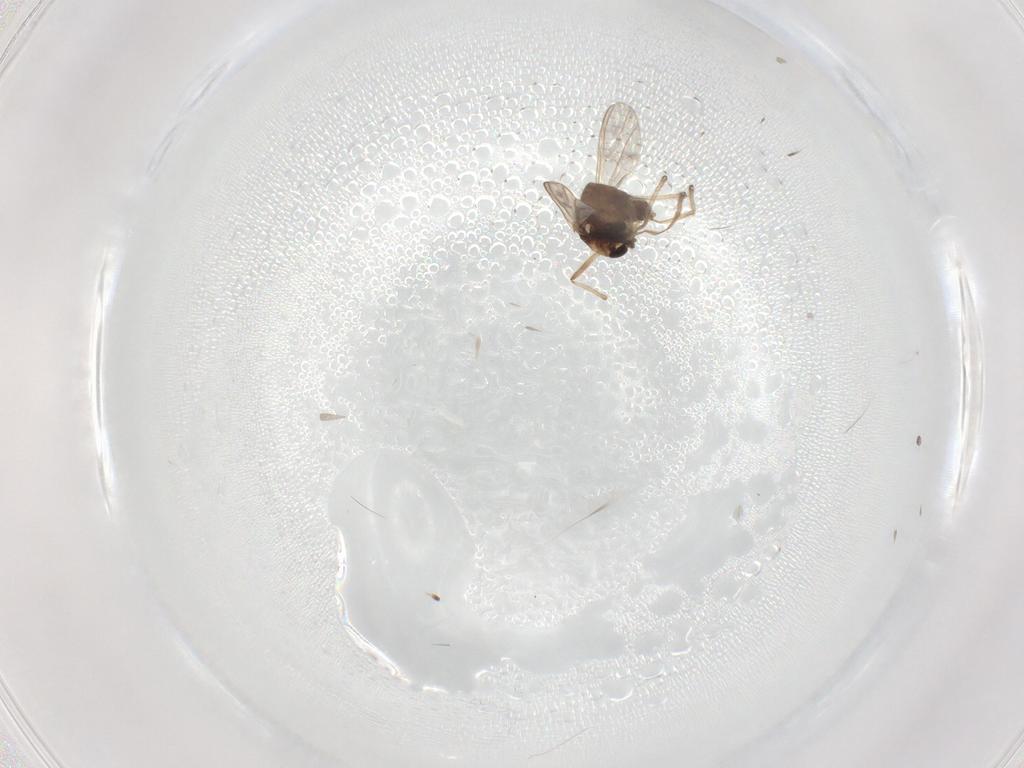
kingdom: Animalia
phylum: Arthropoda
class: Insecta
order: Diptera
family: Chironomidae
